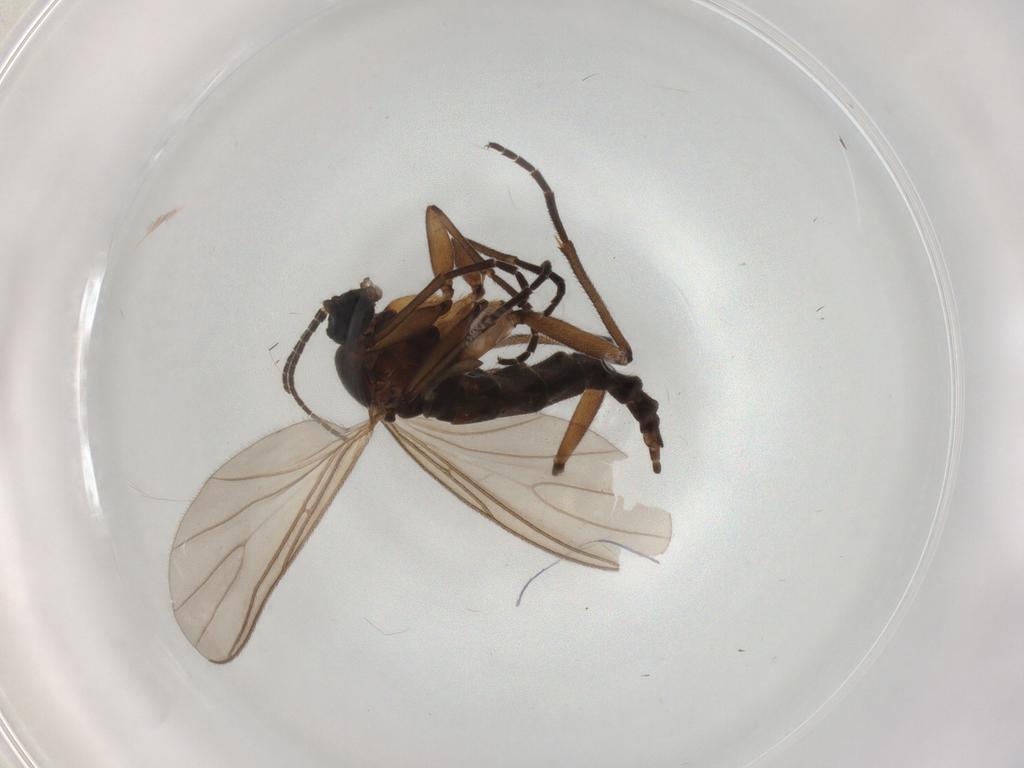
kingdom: Animalia
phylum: Arthropoda
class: Insecta
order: Diptera
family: Sciaridae
